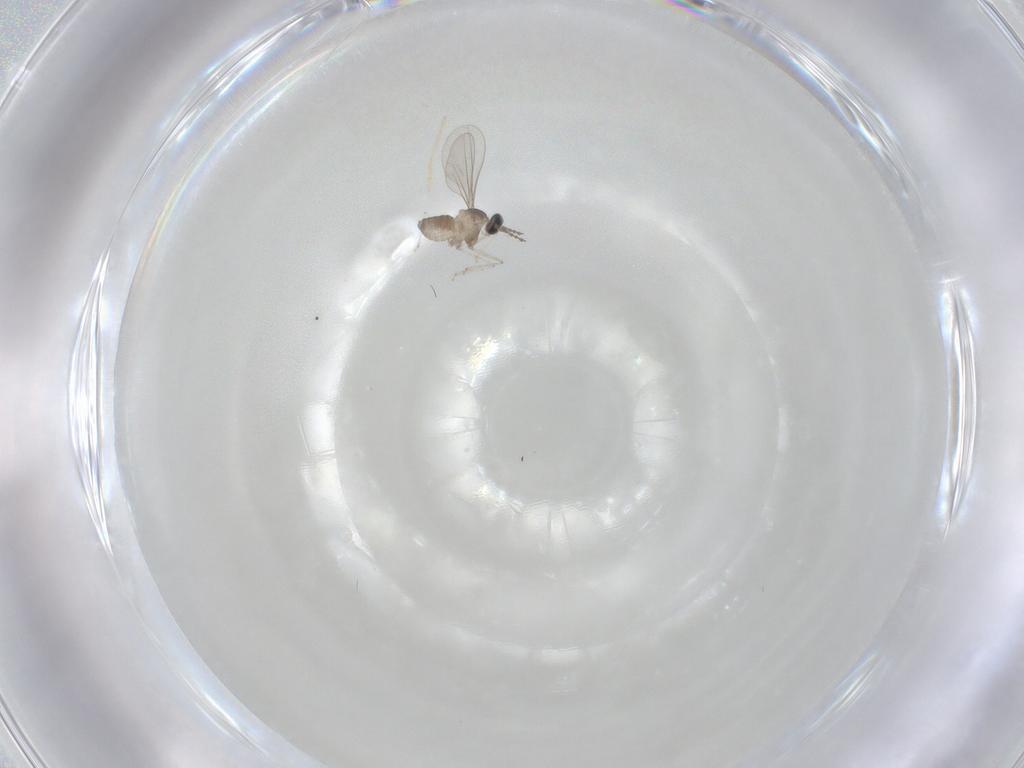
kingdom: Animalia
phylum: Arthropoda
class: Insecta
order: Diptera
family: Cecidomyiidae
